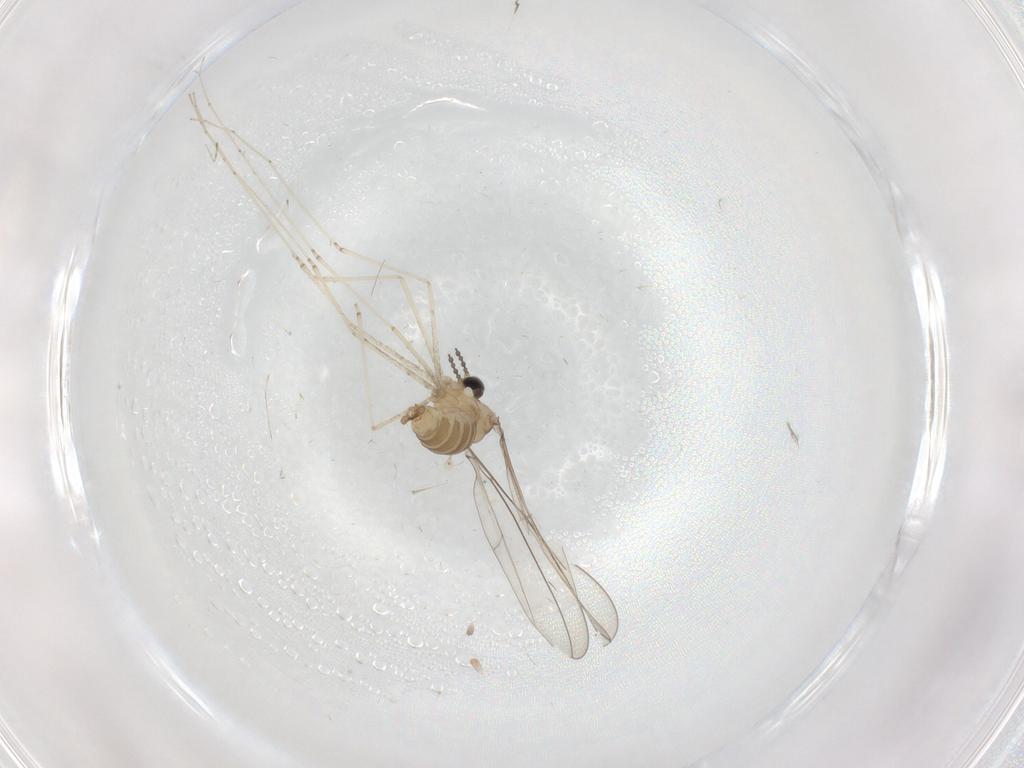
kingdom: Animalia
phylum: Arthropoda
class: Insecta
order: Diptera
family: Cecidomyiidae
